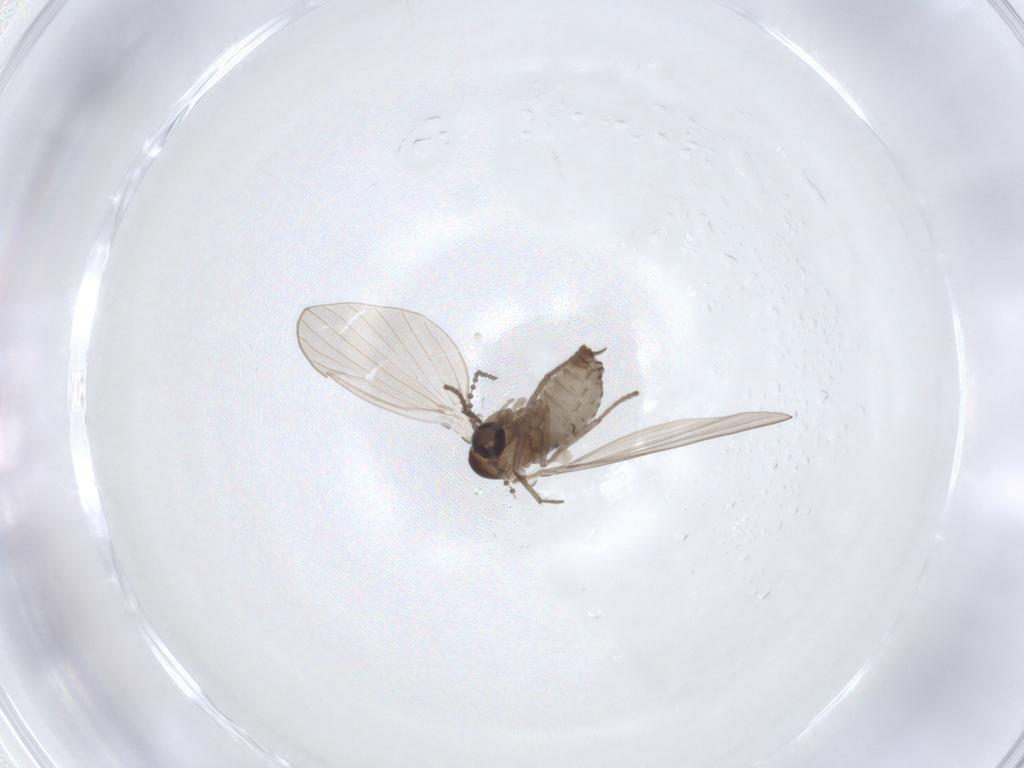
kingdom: Animalia
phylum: Arthropoda
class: Insecta
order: Diptera
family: Psychodidae
